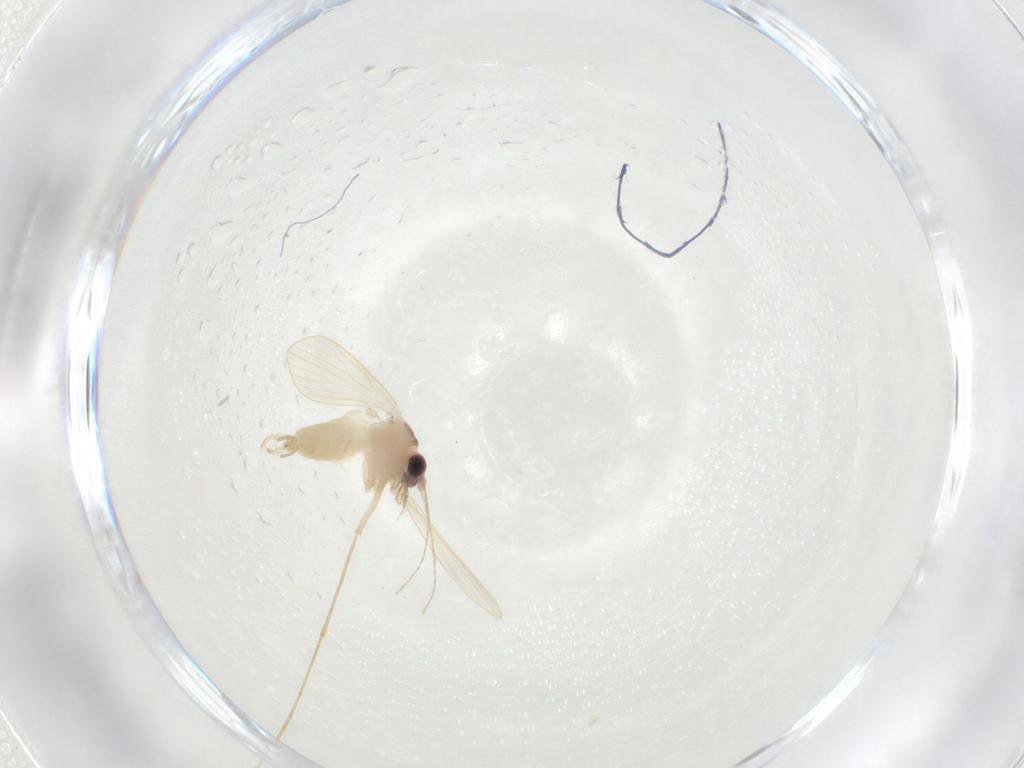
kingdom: Animalia
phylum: Arthropoda
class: Insecta
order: Diptera
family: Psychodidae
